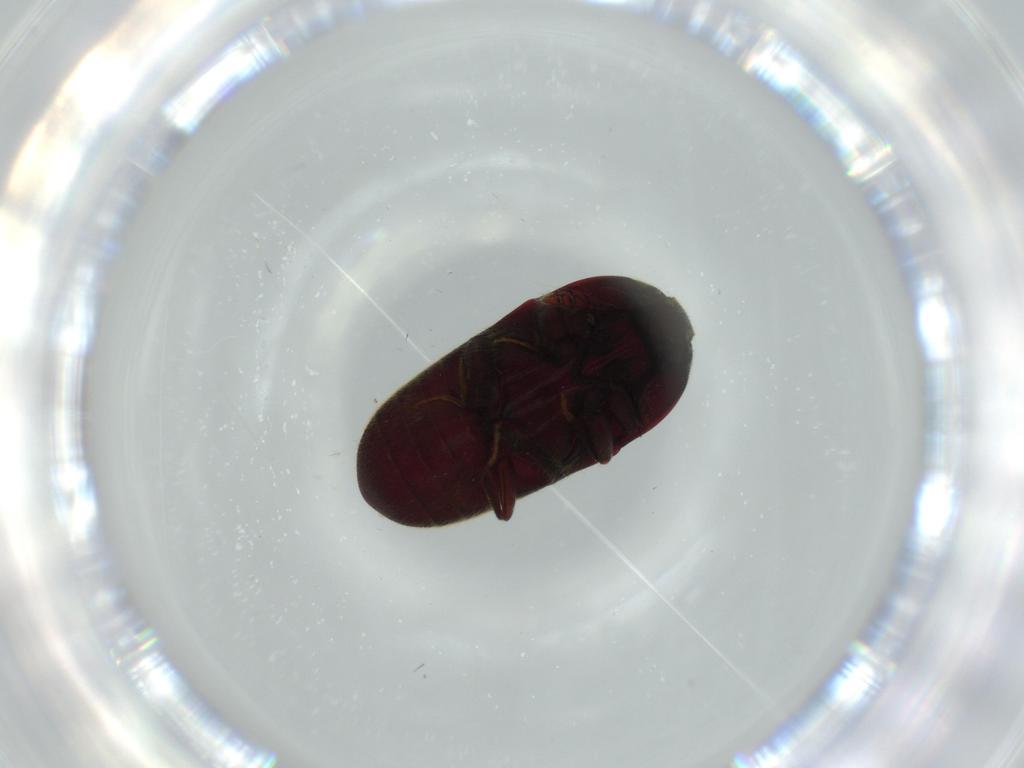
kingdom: Animalia
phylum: Arthropoda
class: Insecta
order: Coleoptera
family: Throscidae
